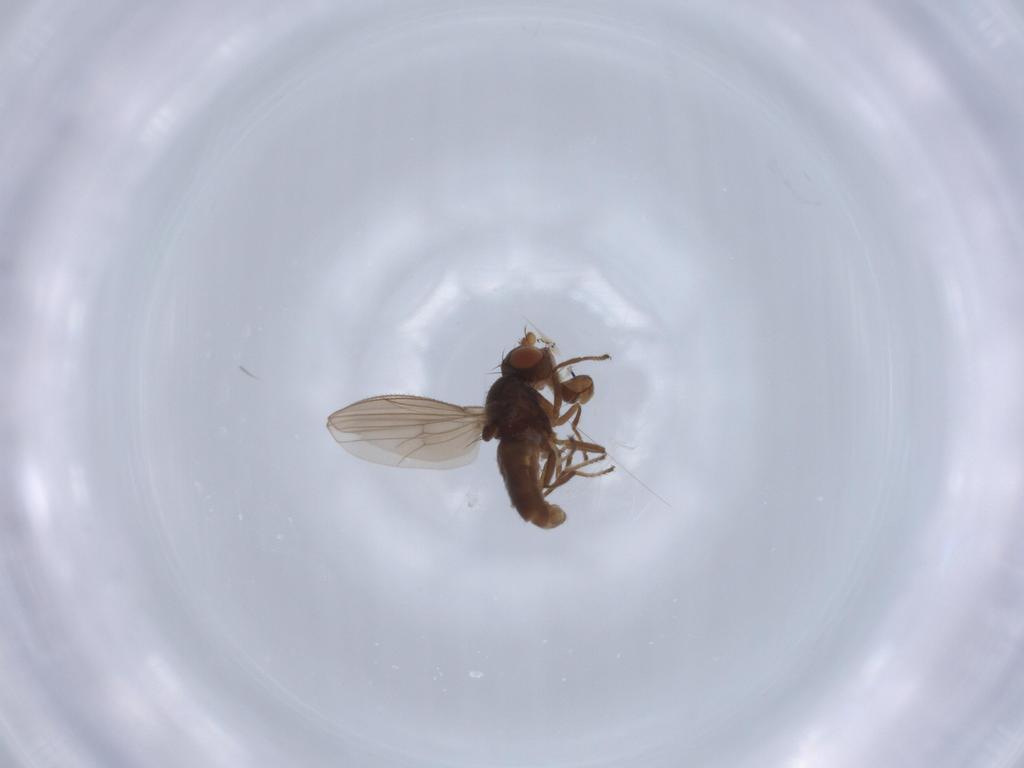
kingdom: Animalia
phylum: Arthropoda
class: Insecta
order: Diptera
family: Ephydridae
